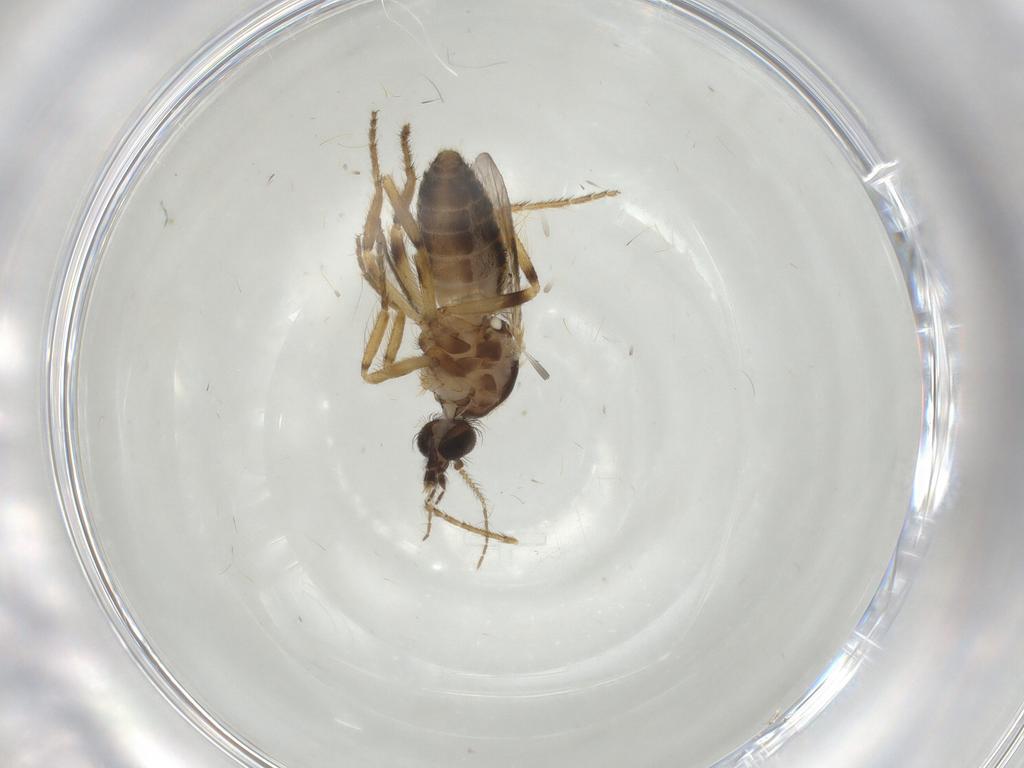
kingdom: Animalia
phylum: Arthropoda
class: Insecta
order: Diptera
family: Ceratopogonidae
